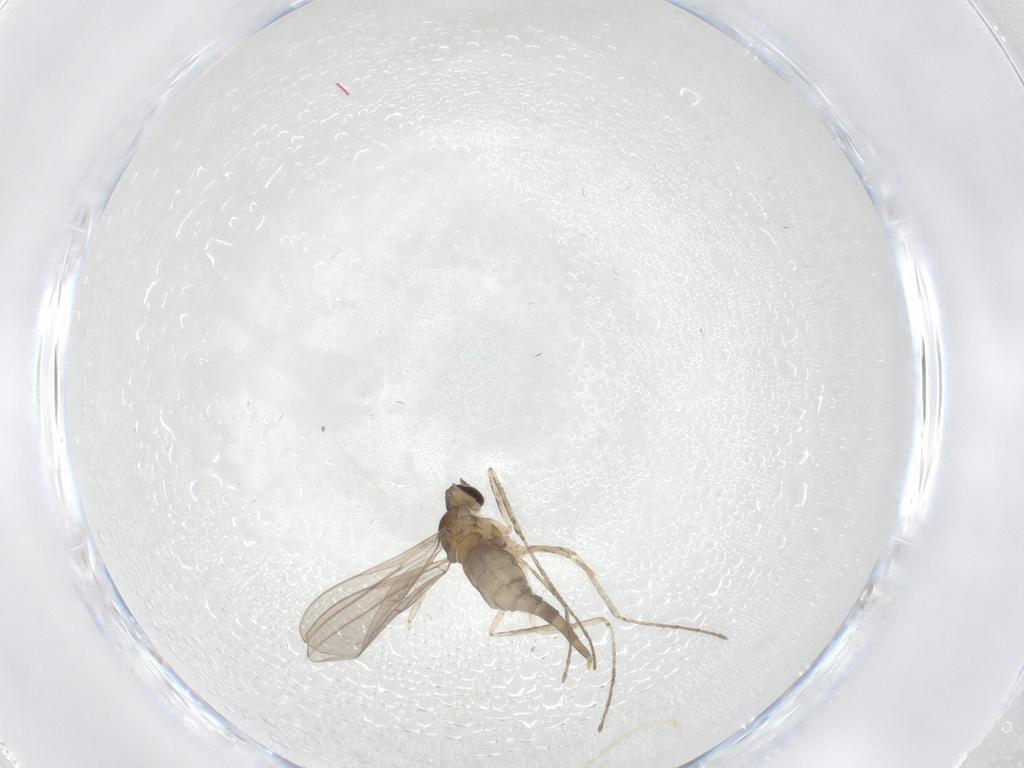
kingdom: Animalia
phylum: Arthropoda
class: Insecta
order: Diptera
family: Cecidomyiidae
